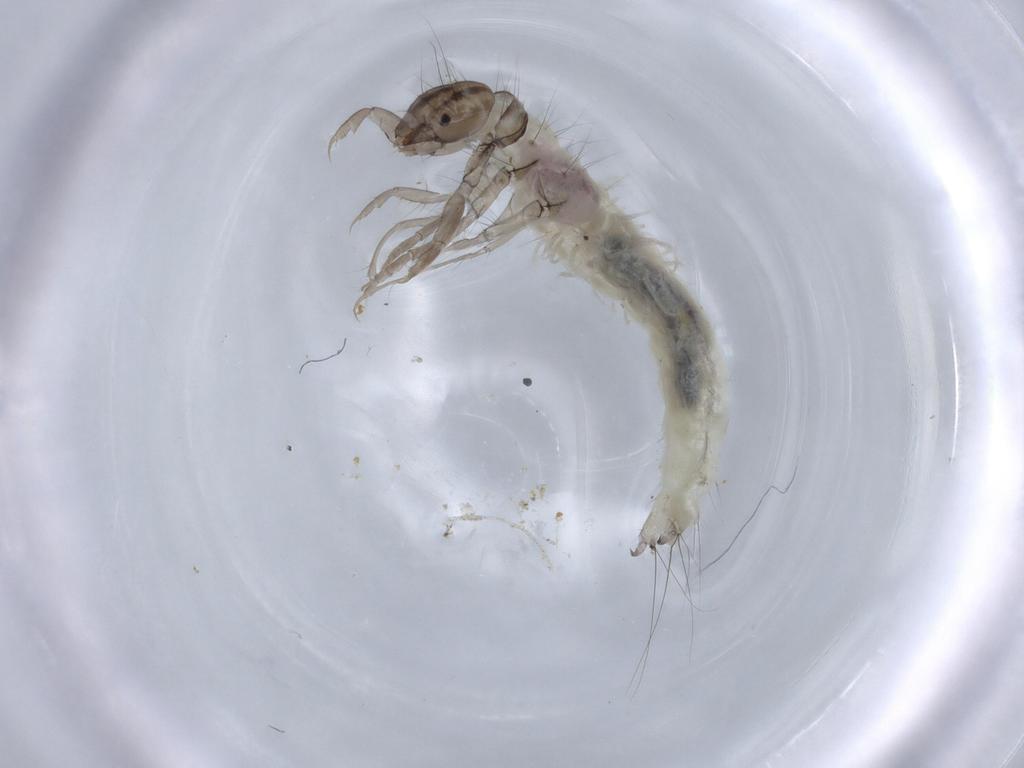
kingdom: Animalia
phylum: Arthropoda
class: Insecta
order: Trichoptera
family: Phryganeidae
